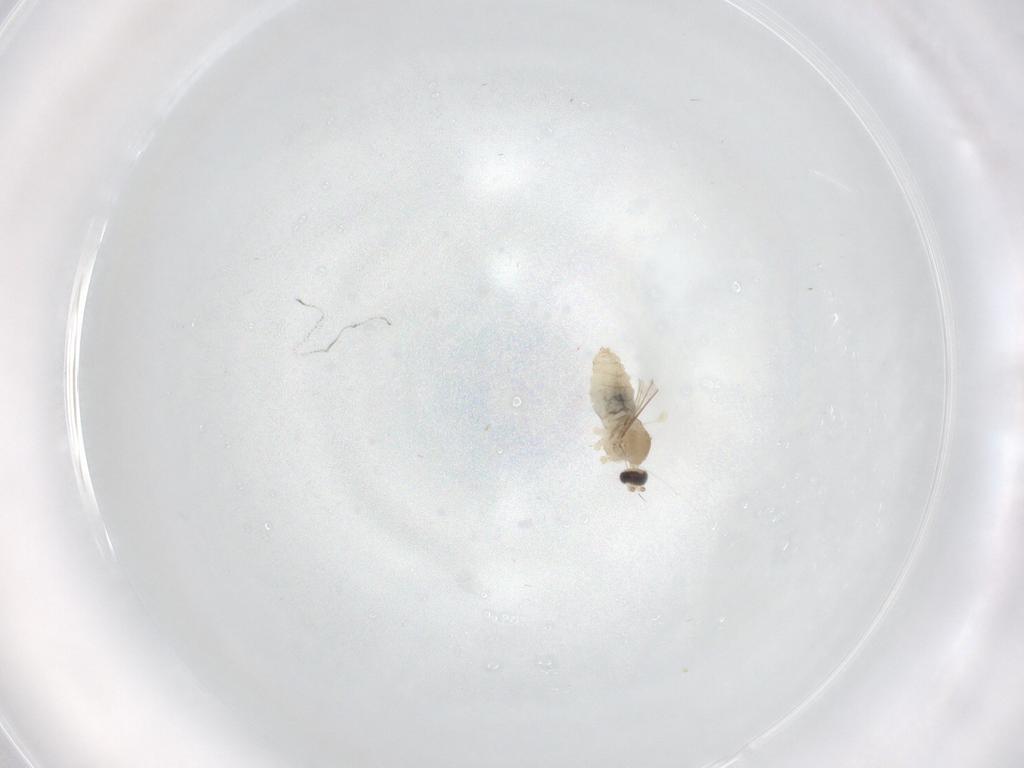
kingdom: Animalia
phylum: Arthropoda
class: Insecta
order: Diptera
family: Cecidomyiidae
